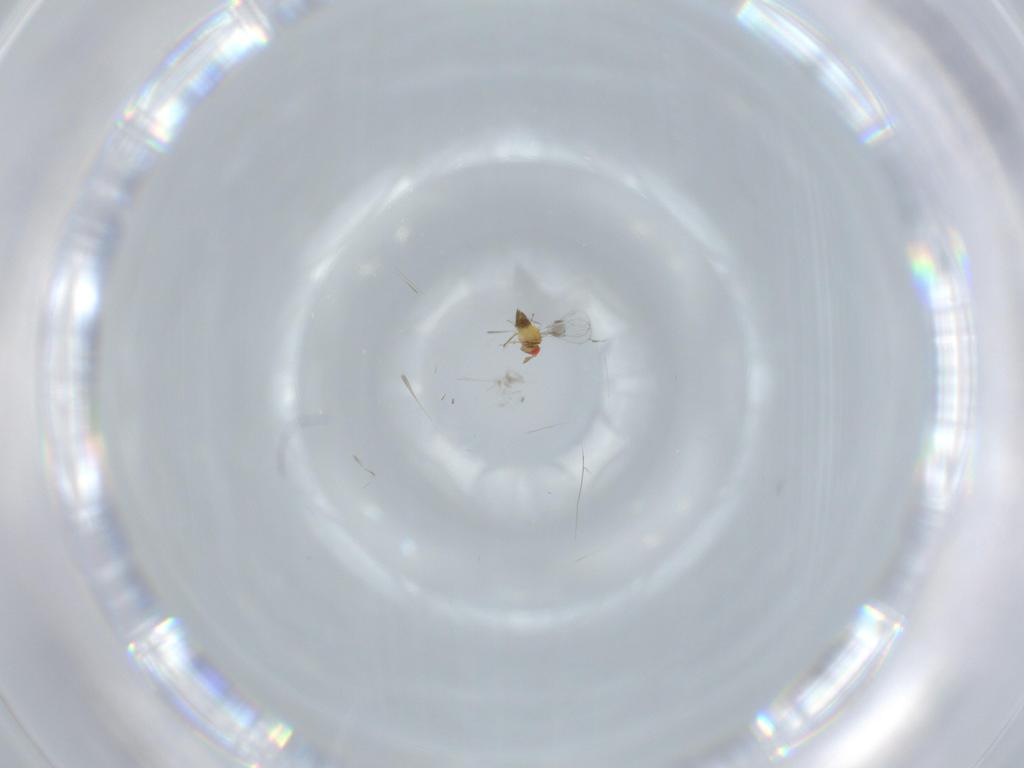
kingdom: Animalia
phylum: Arthropoda
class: Insecta
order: Hymenoptera
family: Trichogrammatidae
